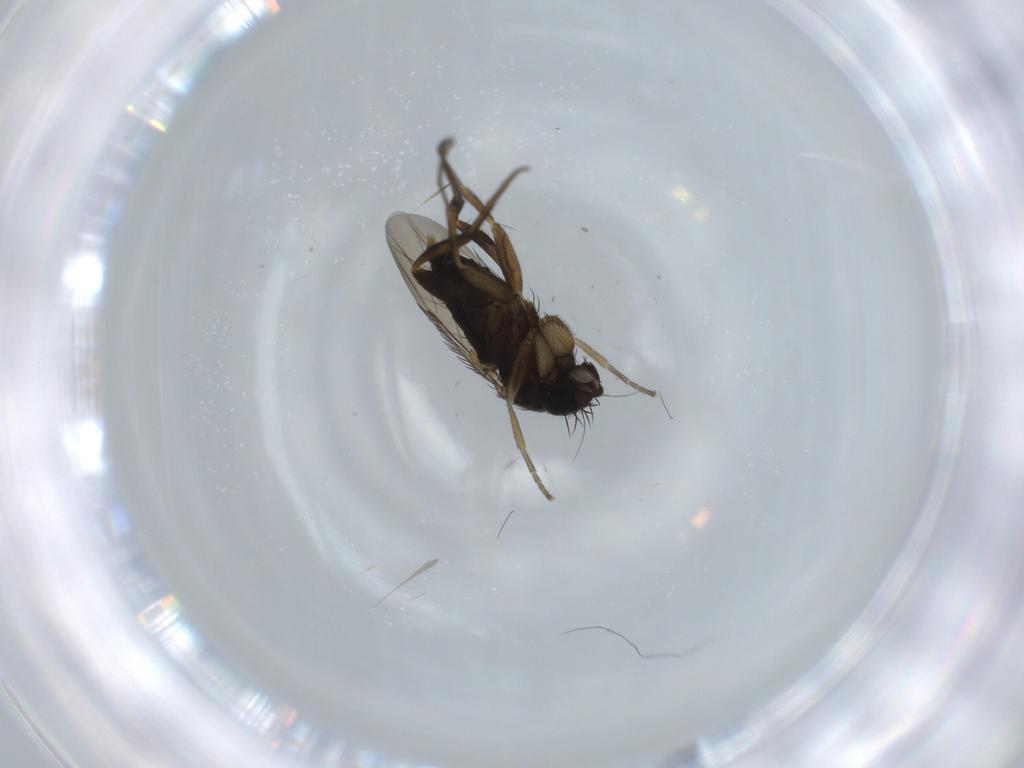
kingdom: Animalia
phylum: Arthropoda
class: Insecta
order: Diptera
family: Phoridae
